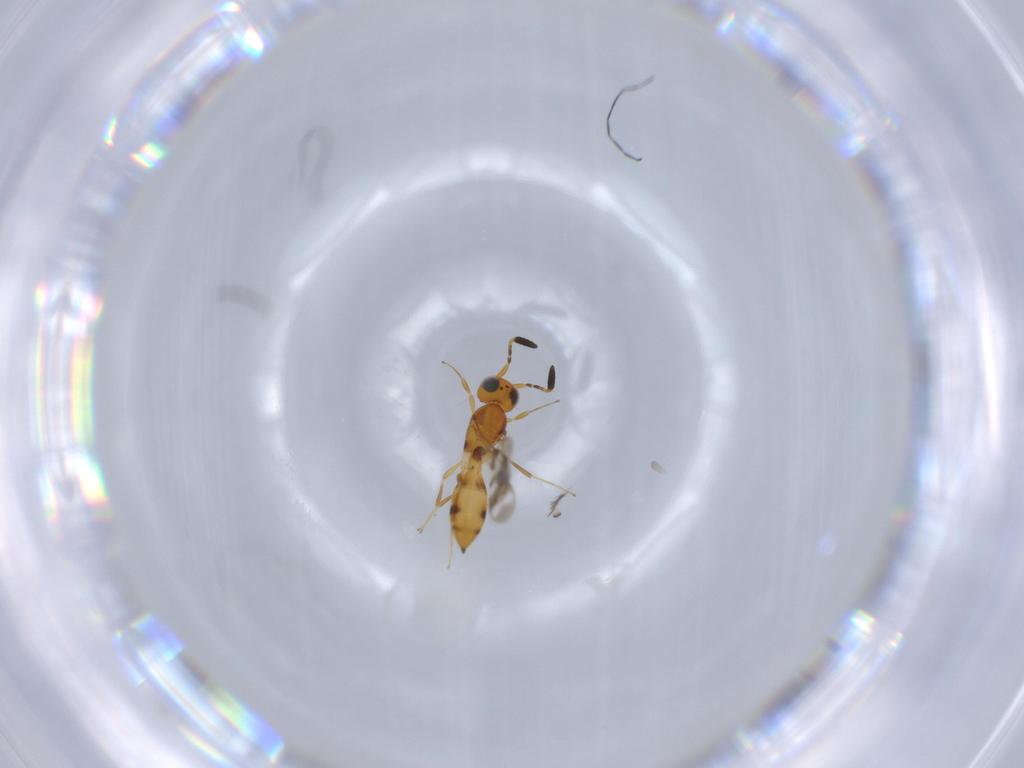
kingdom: Animalia
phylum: Arthropoda
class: Insecta
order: Hymenoptera
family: Scelionidae
